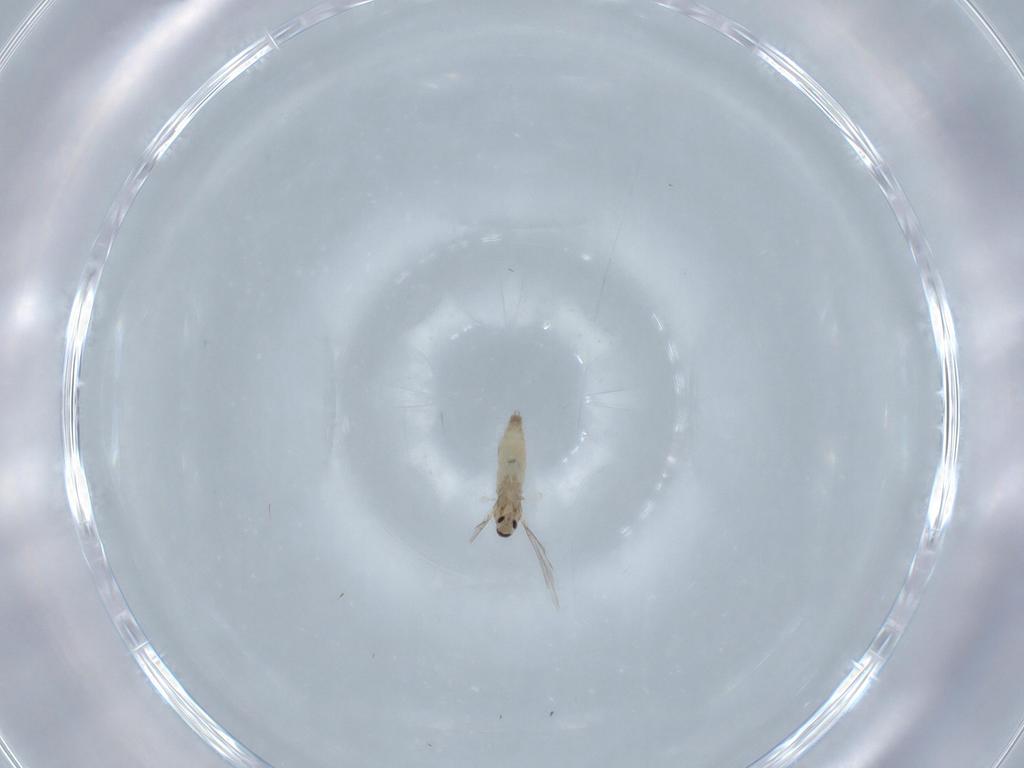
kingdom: Animalia
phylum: Arthropoda
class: Insecta
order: Diptera
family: Cecidomyiidae
